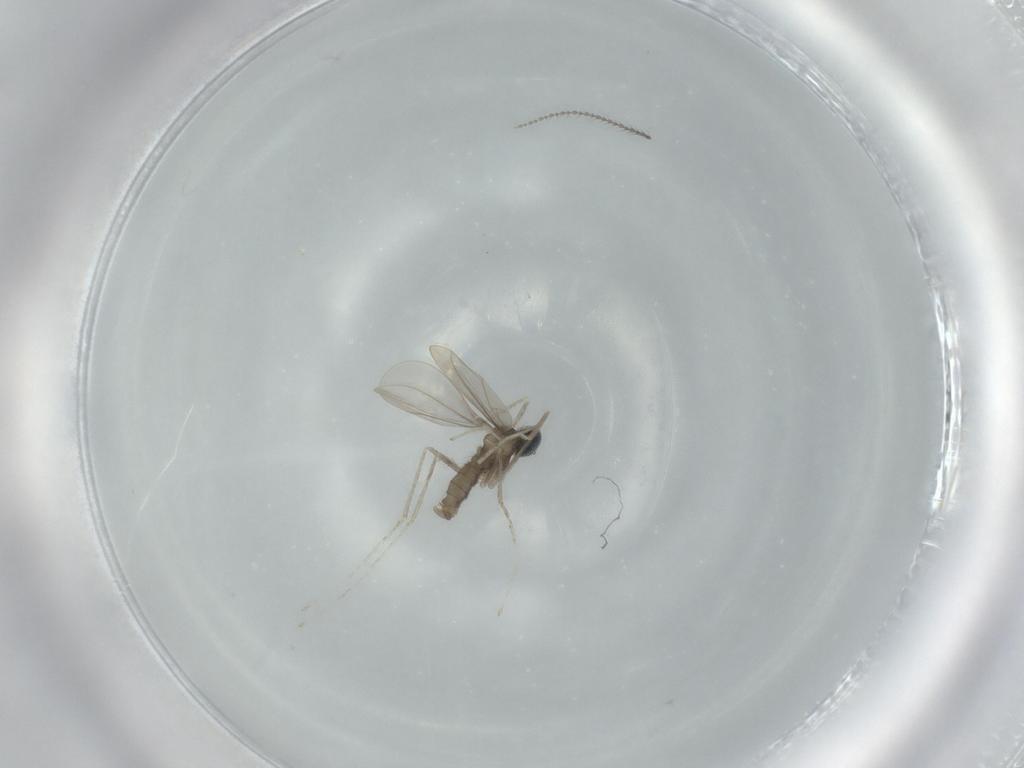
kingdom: Animalia
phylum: Arthropoda
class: Insecta
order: Diptera
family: Cecidomyiidae
